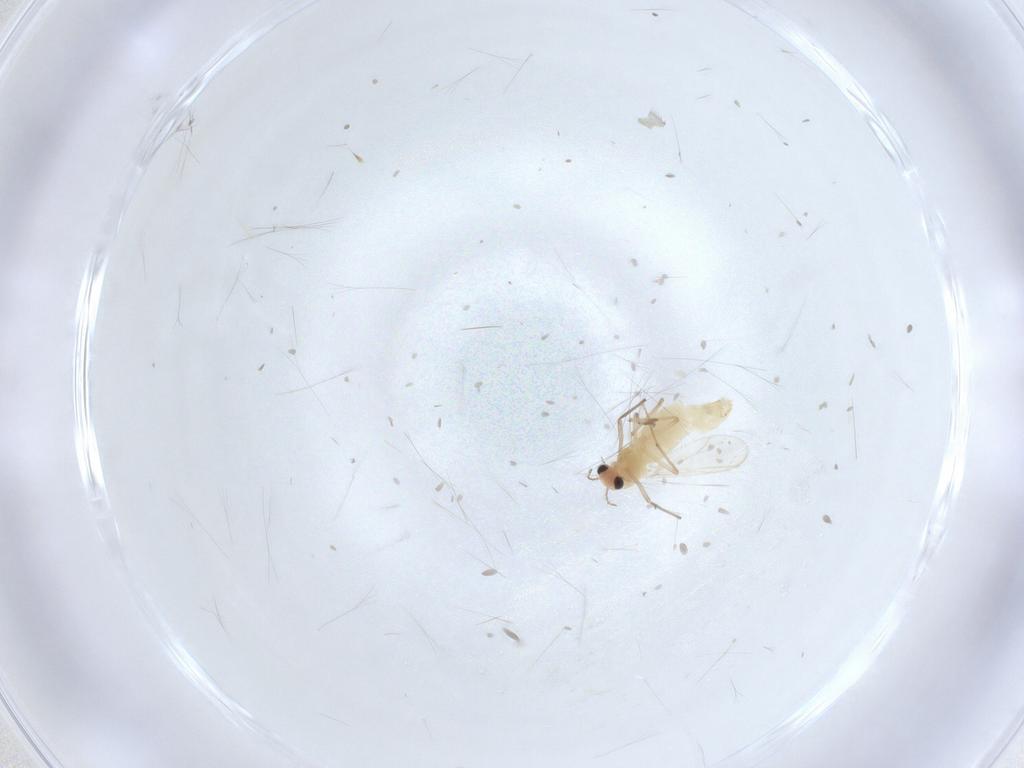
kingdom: Animalia
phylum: Arthropoda
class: Insecta
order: Diptera
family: Chironomidae
